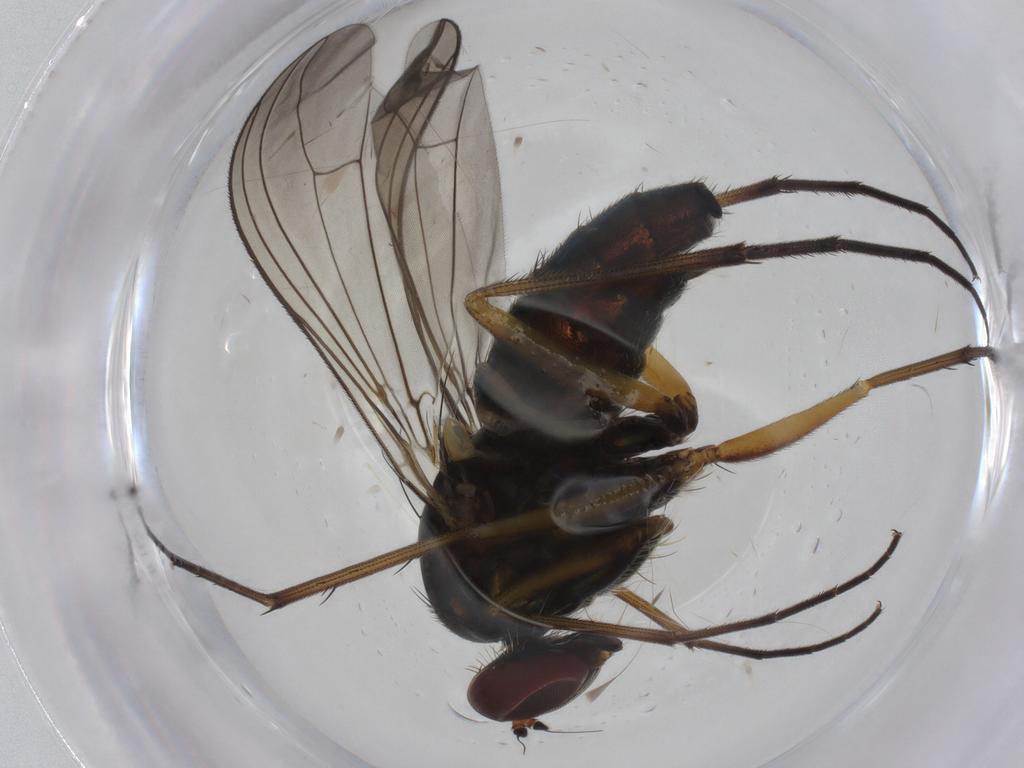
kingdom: Animalia
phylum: Arthropoda
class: Insecta
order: Diptera
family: Dolichopodidae
